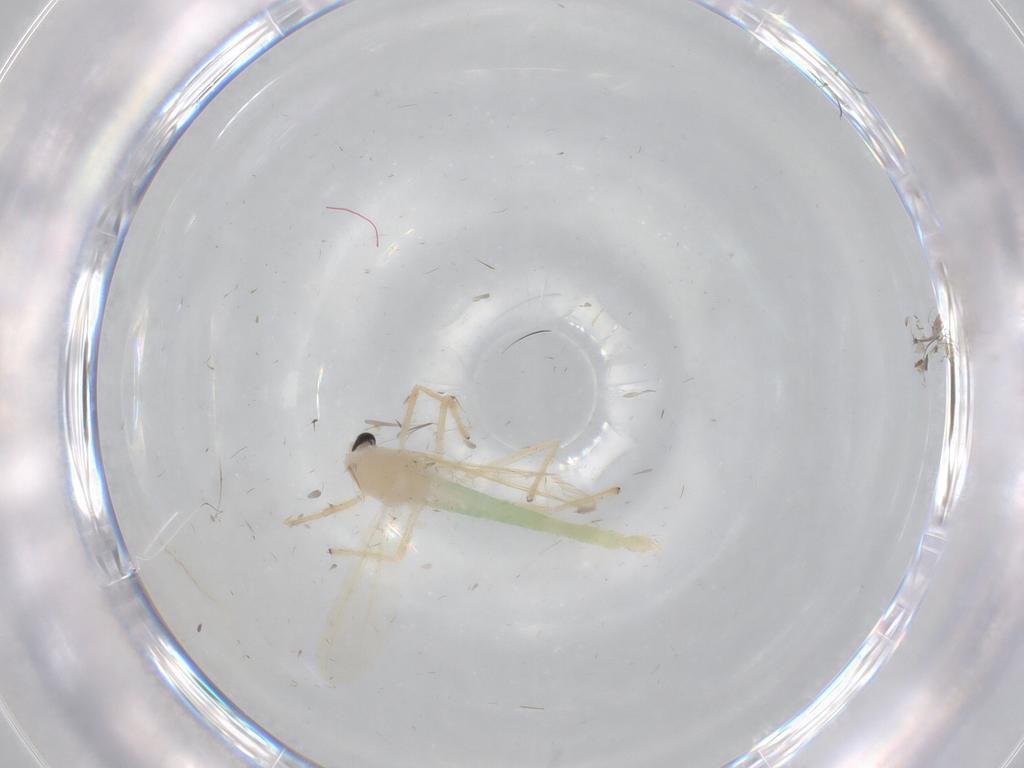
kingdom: Animalia
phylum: Arthropoda
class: Insecta
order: Diptera
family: Chironomidae
